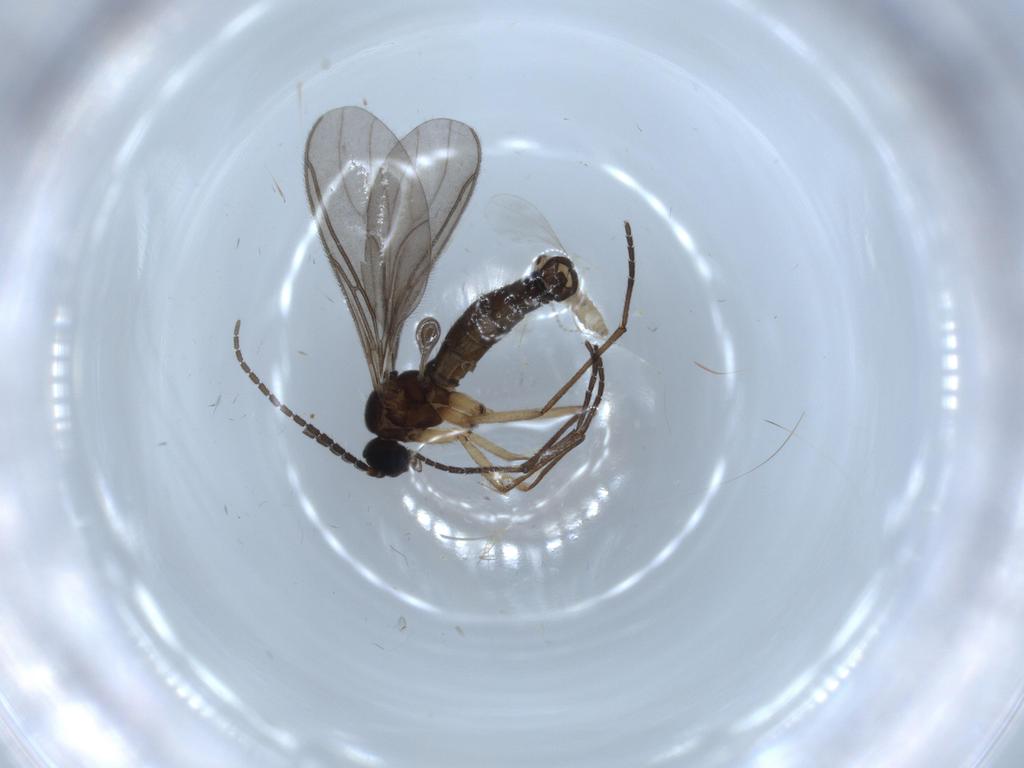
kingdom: Animalia
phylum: Arthropoda
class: Insecta
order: Diptera
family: Cecidomyiidae
